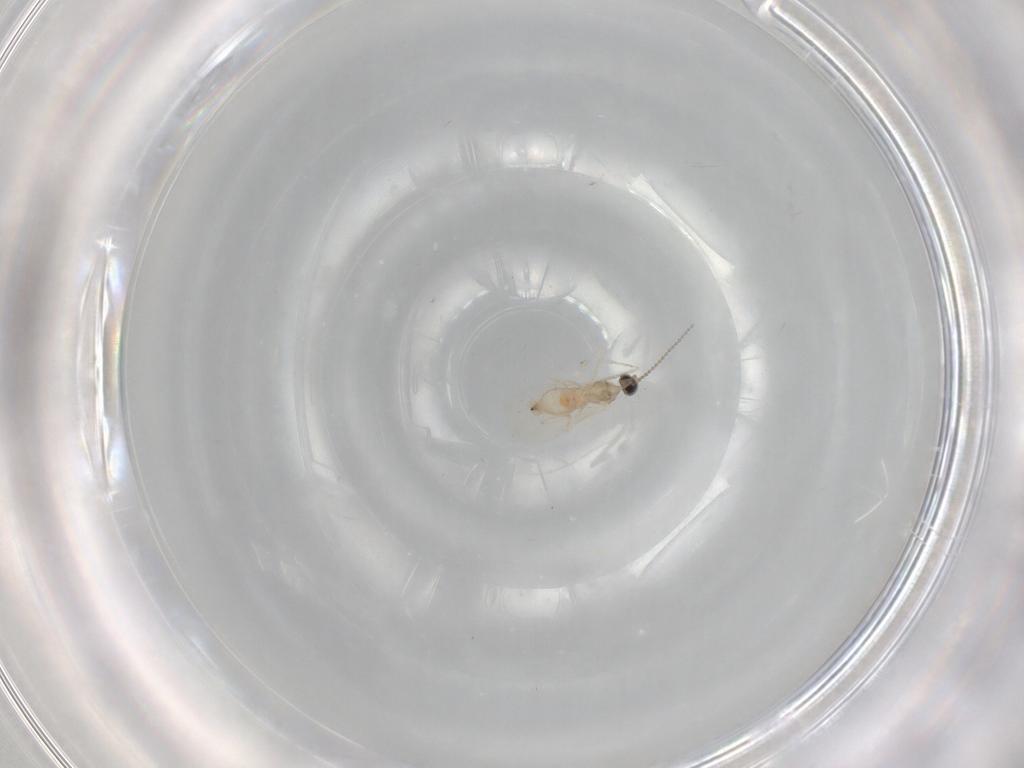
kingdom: Animalia
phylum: Arthropoda
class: Insecta
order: Diptera
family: Cecidomyiidae
